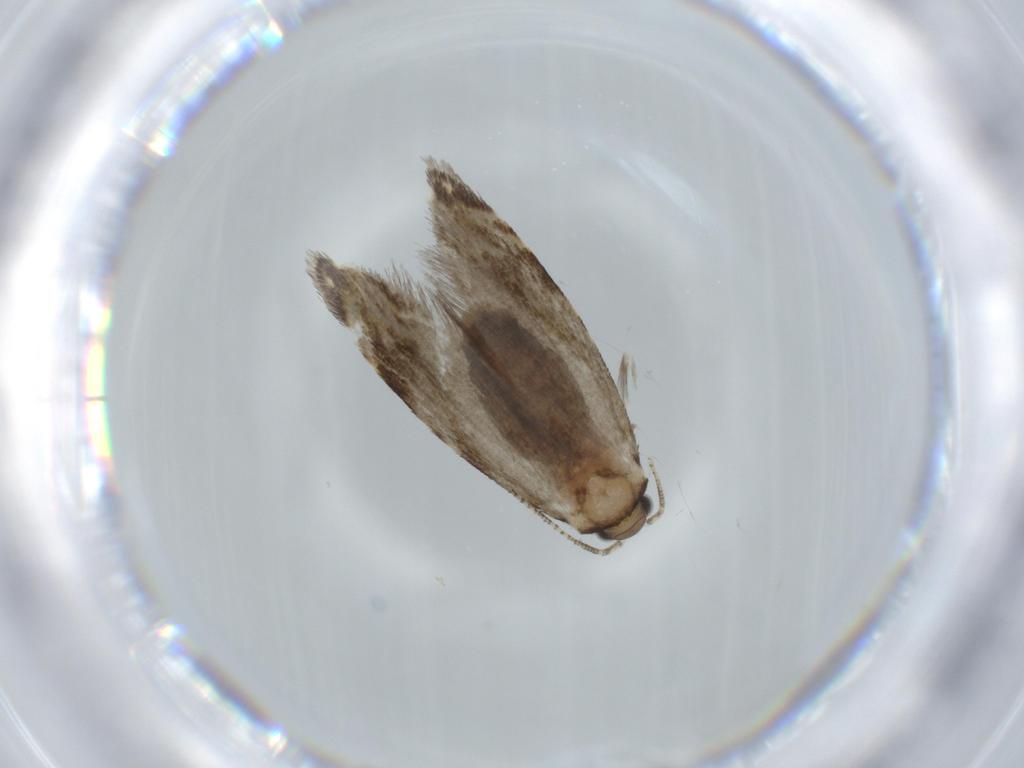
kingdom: Animalia
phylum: Arthropoda
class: Insecta
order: Lepidoptera
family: Tineidae
